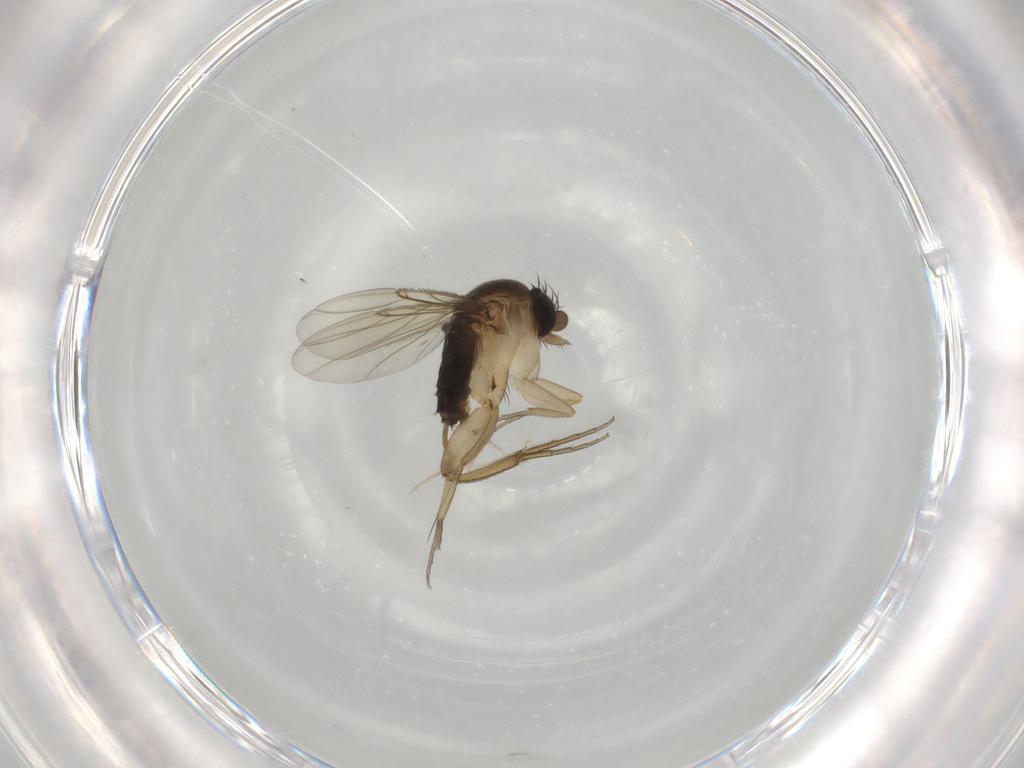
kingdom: Animalia
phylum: Arthropoda
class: Insecta
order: Diptera
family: Phoridae
